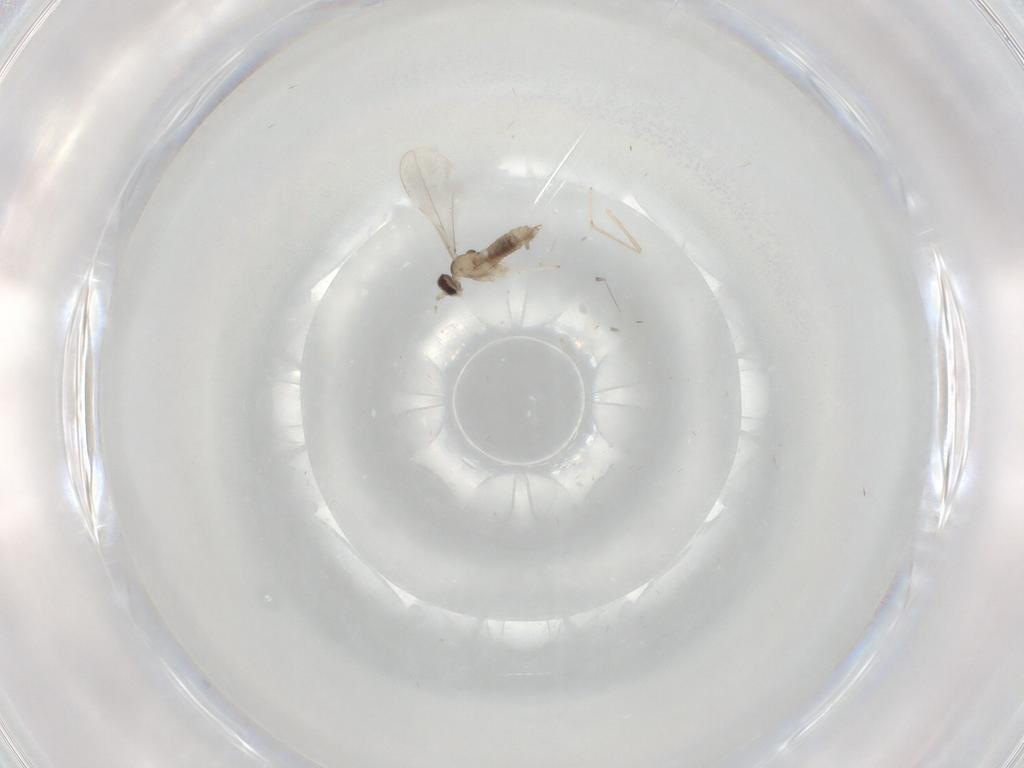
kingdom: Animalia
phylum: Arthropoda
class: Insecta
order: Diptera
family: Cecidomyiidae
